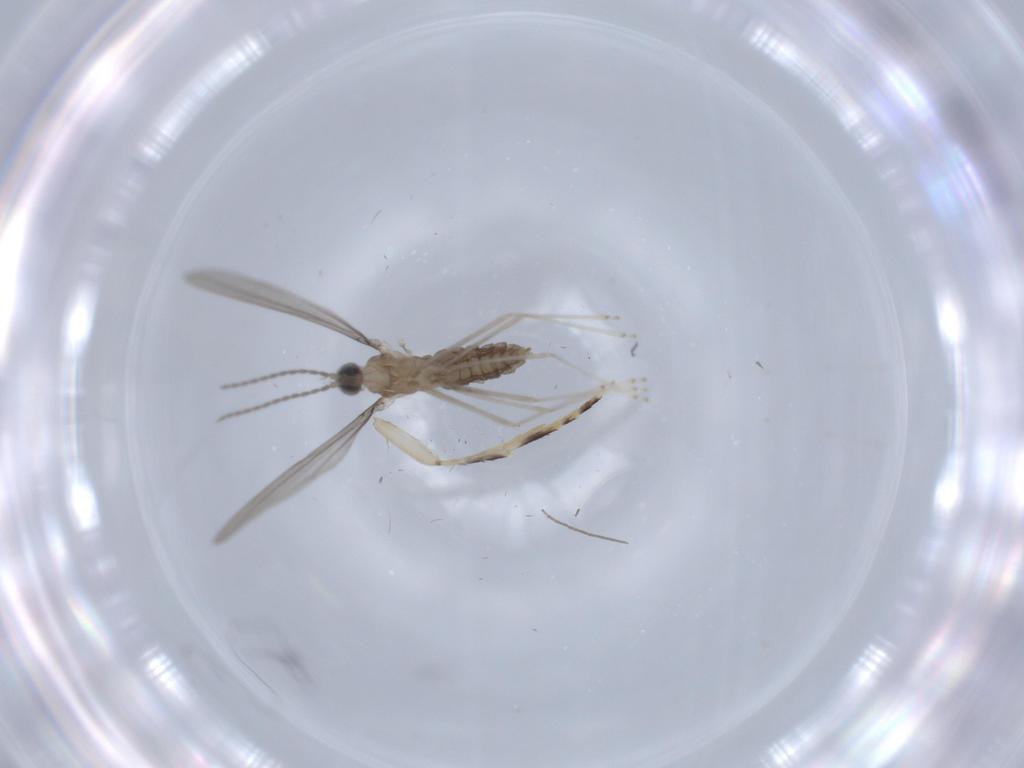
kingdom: Animalia
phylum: Arthropoda
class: Insecta
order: Diptera
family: Cecidomyiidae
